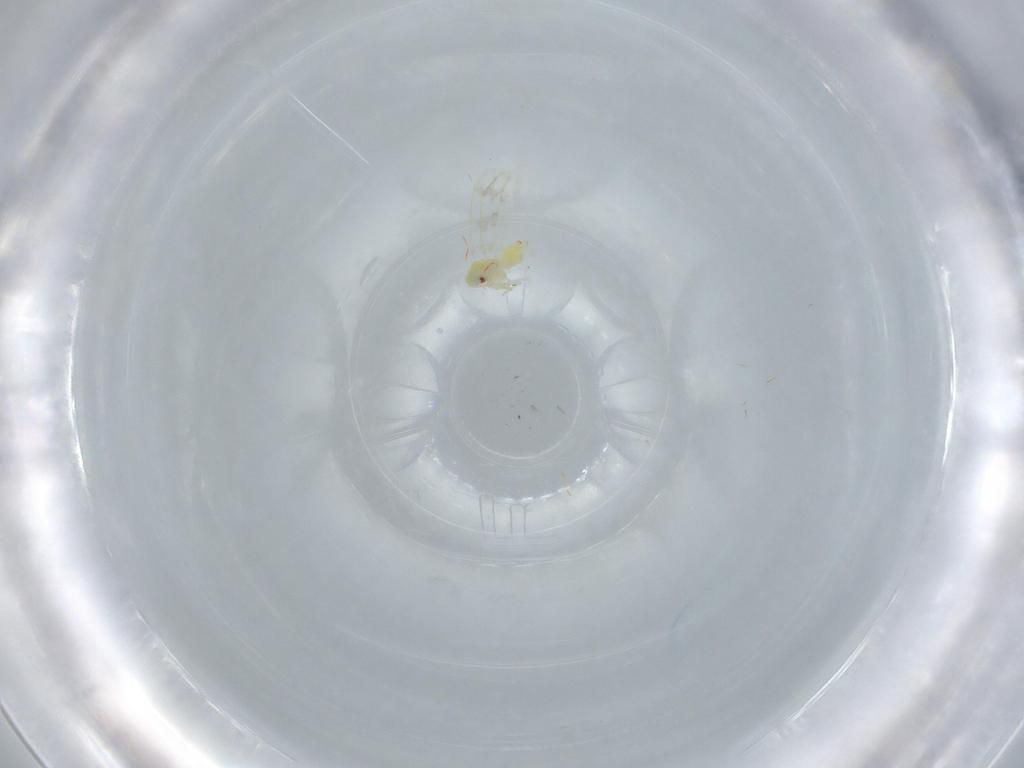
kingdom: Animalia
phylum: Arthropoda
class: Insecta
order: Hemiptera
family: Aleyrodidae
